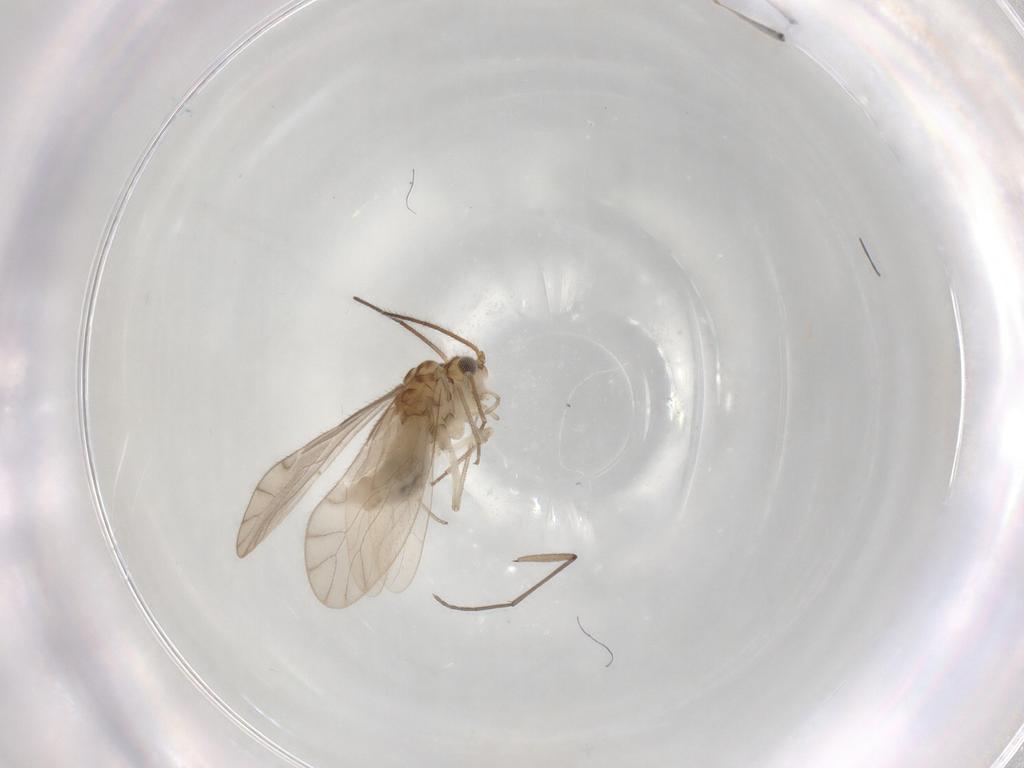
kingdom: Animalia
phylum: Arthropoda
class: Insecta
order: Psocodea
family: Caeciliusidae
